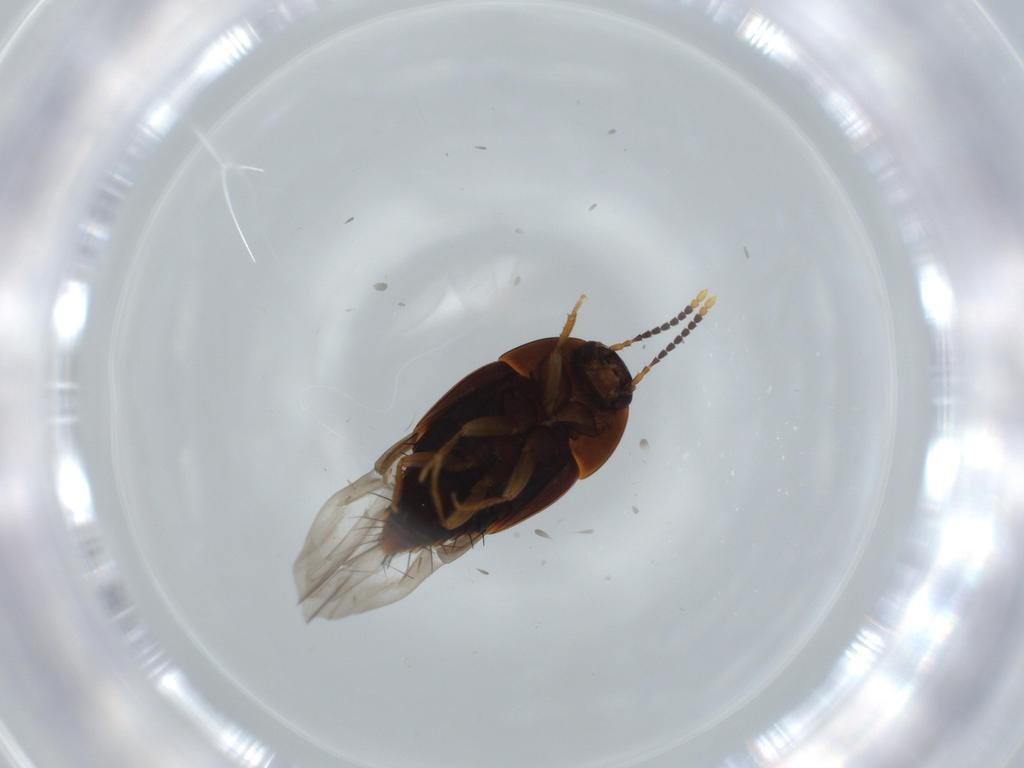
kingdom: Animalia
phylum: Arthropoda
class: Insecta
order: Coleoptera
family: Staphylinidae
